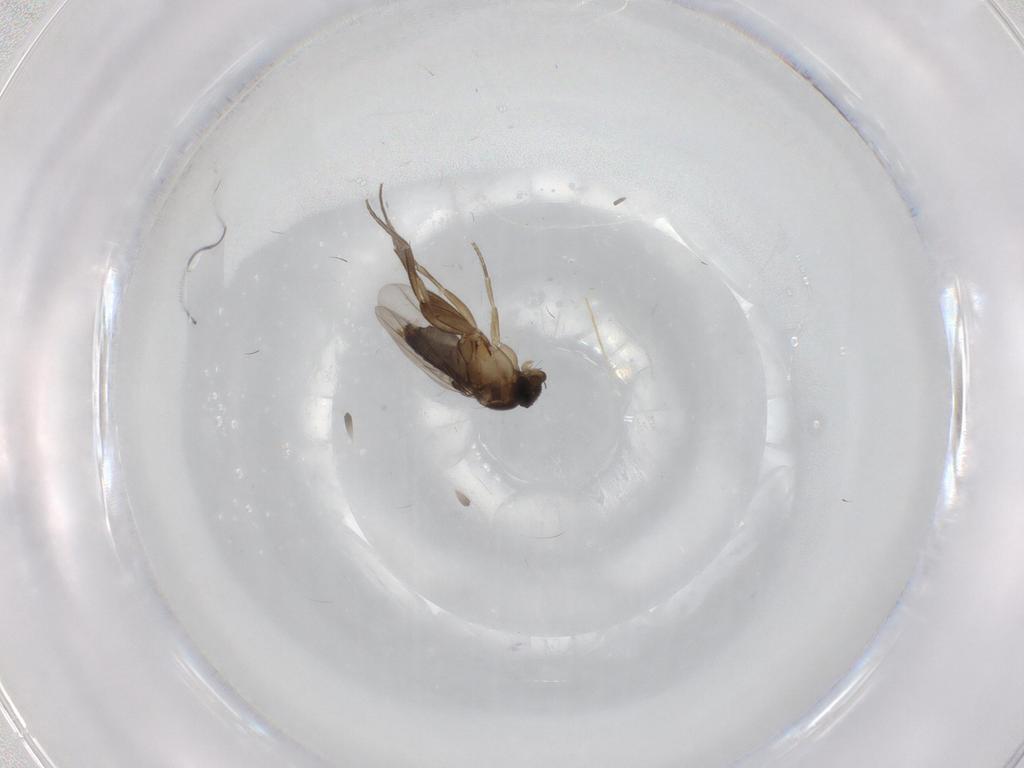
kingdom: Animalia
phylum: Arthropoda
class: Insecta
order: Diptera
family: Phoridae
